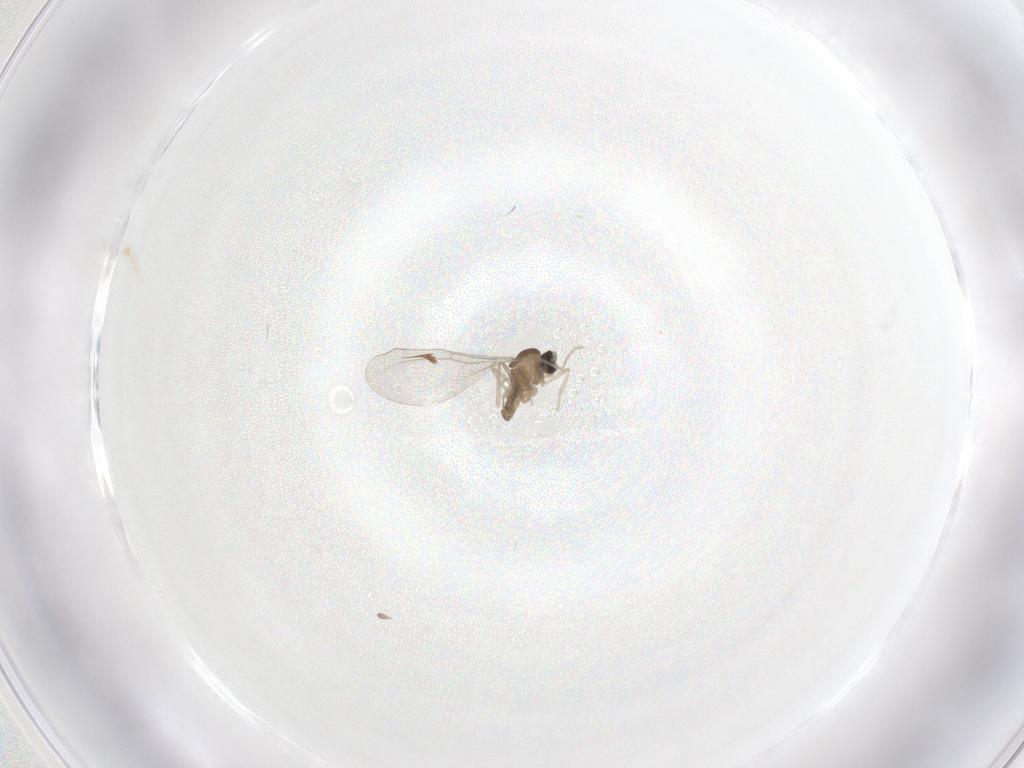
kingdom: Animalia
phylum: Arthropoda
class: Insecta
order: Diptera
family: Cecidomyiidae
